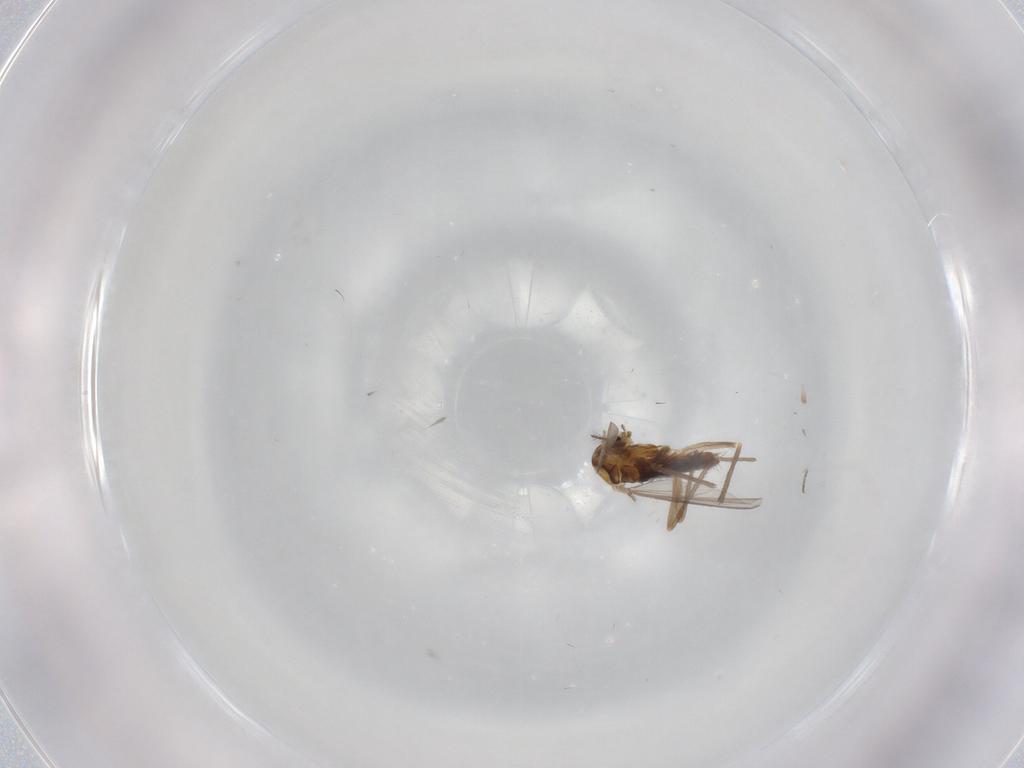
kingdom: Animalia
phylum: Arthropoda
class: Insecta
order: Diptera
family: Chironomidae
